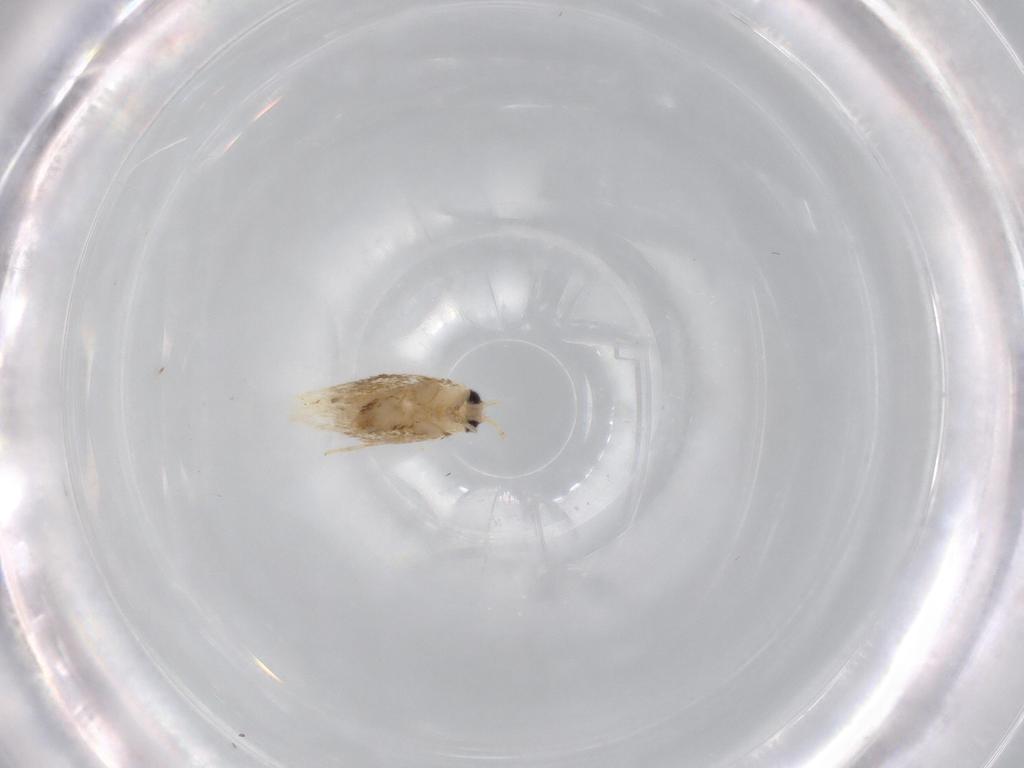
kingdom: Animalia
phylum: Arthropoda
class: Insecta
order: Lepidoptera
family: Nepticulidae
